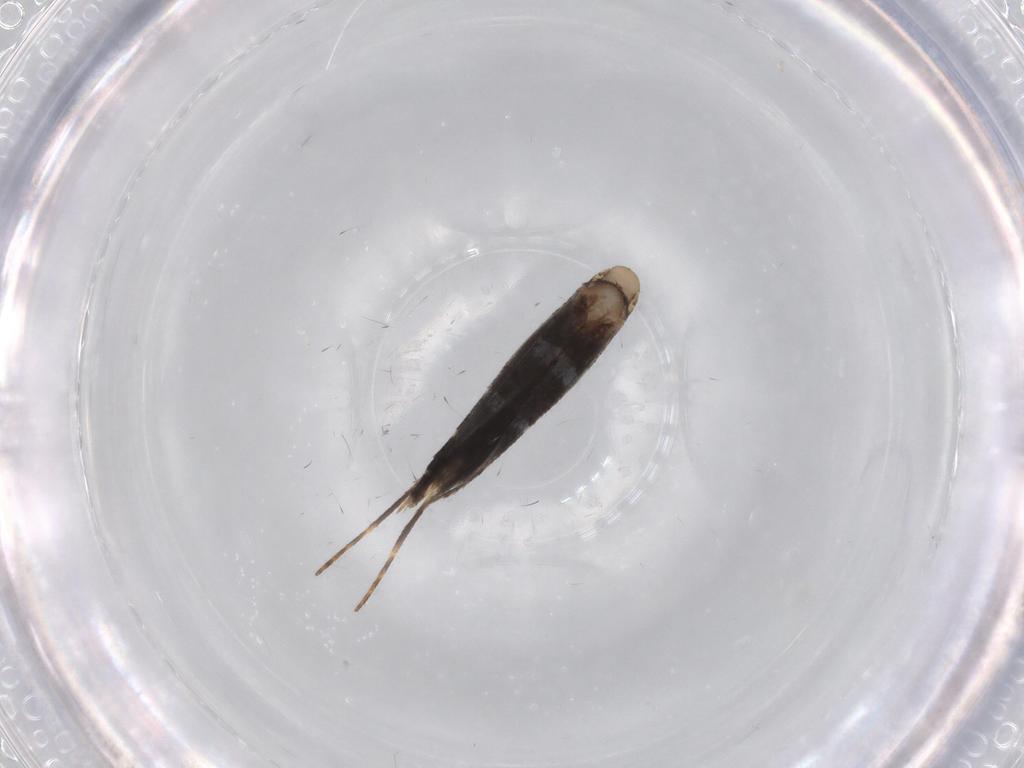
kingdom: Animalia
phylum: Arthropoda
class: Insecta
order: Lepidoptera
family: Gracillariidae
